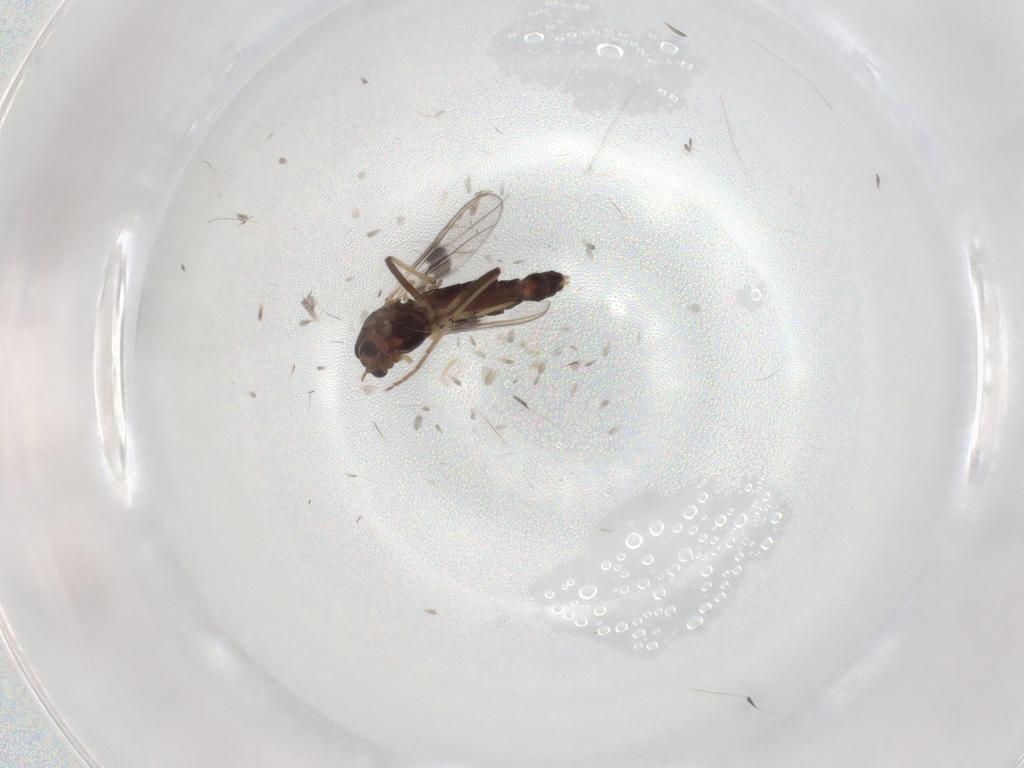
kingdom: Animalia
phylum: Arthropoda
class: Insecta
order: Diptera
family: Chironomidae
